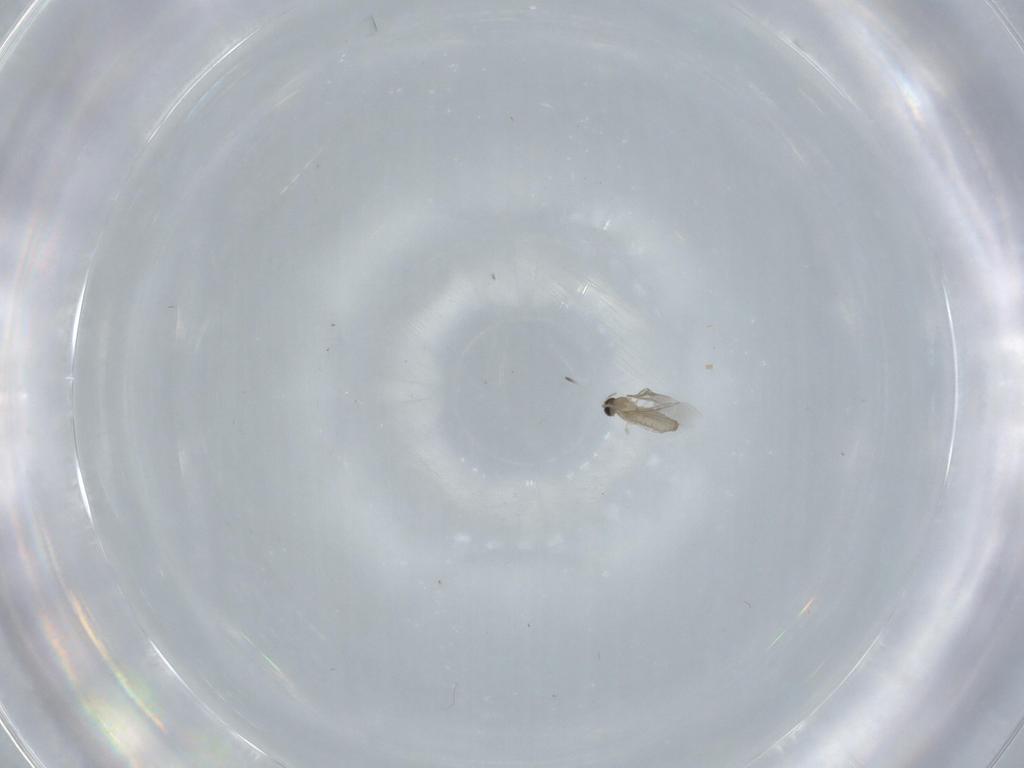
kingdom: Animalia
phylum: Arthropoda
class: Insecta
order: Diptera
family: Cecidomyiidae
